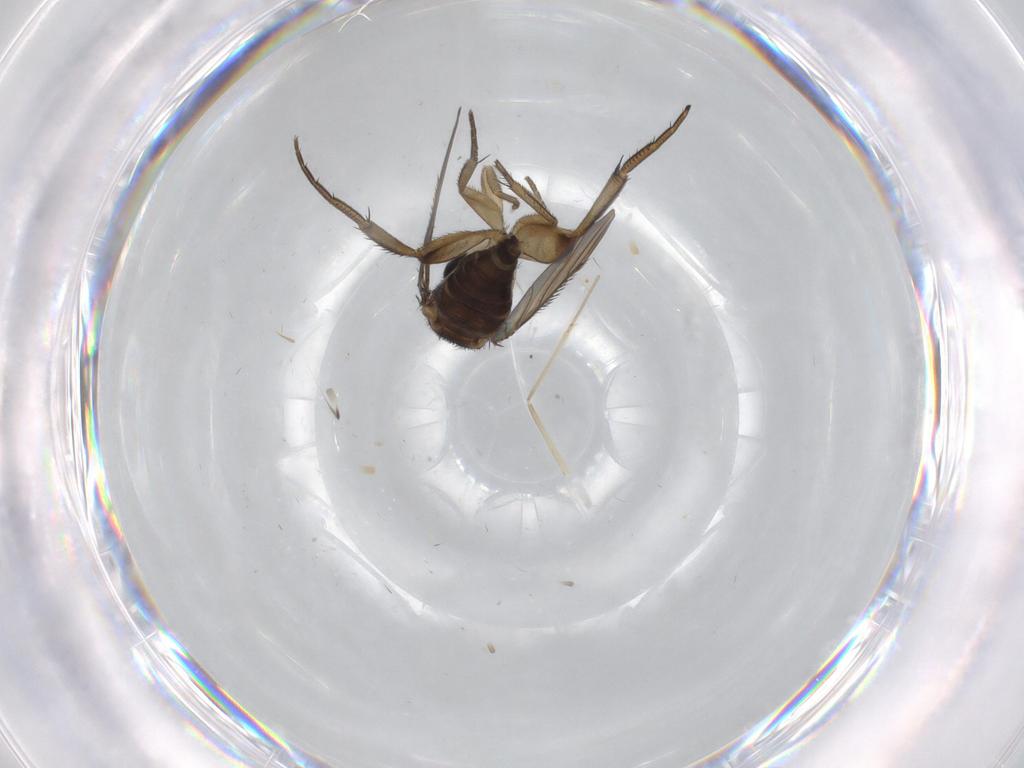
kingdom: Animalia
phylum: Arthropoda
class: Insecta
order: Diptera
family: Phoridae
